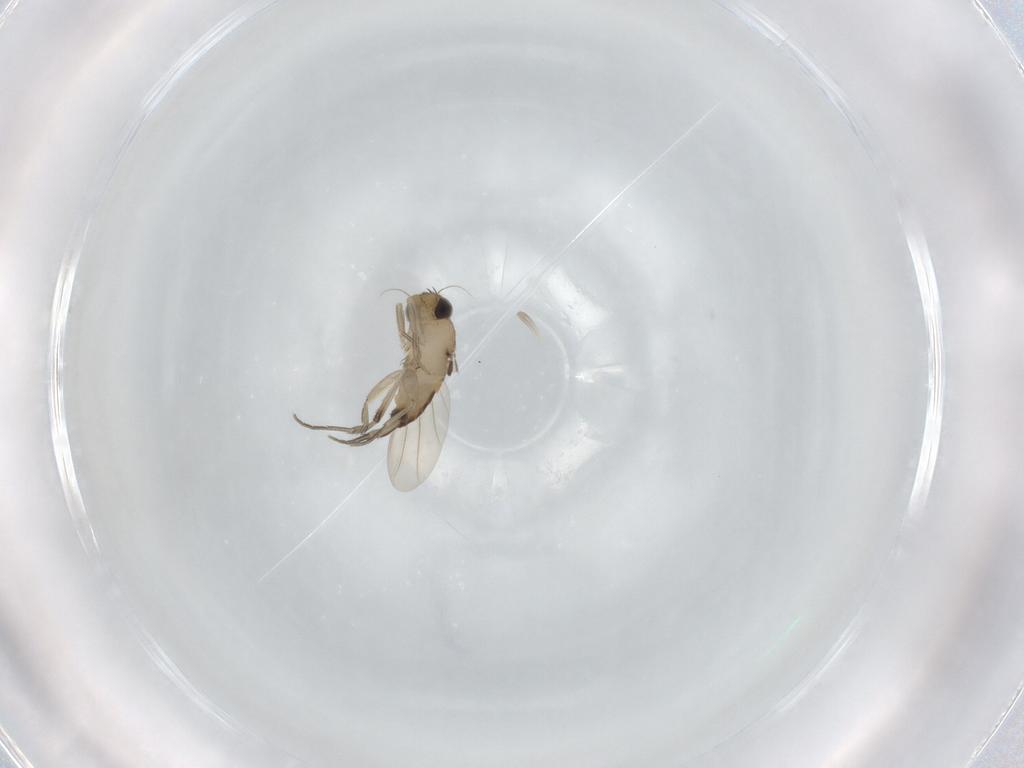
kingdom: Animalia
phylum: Arthropoda
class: Insecta
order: Diptera
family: Phoridae
